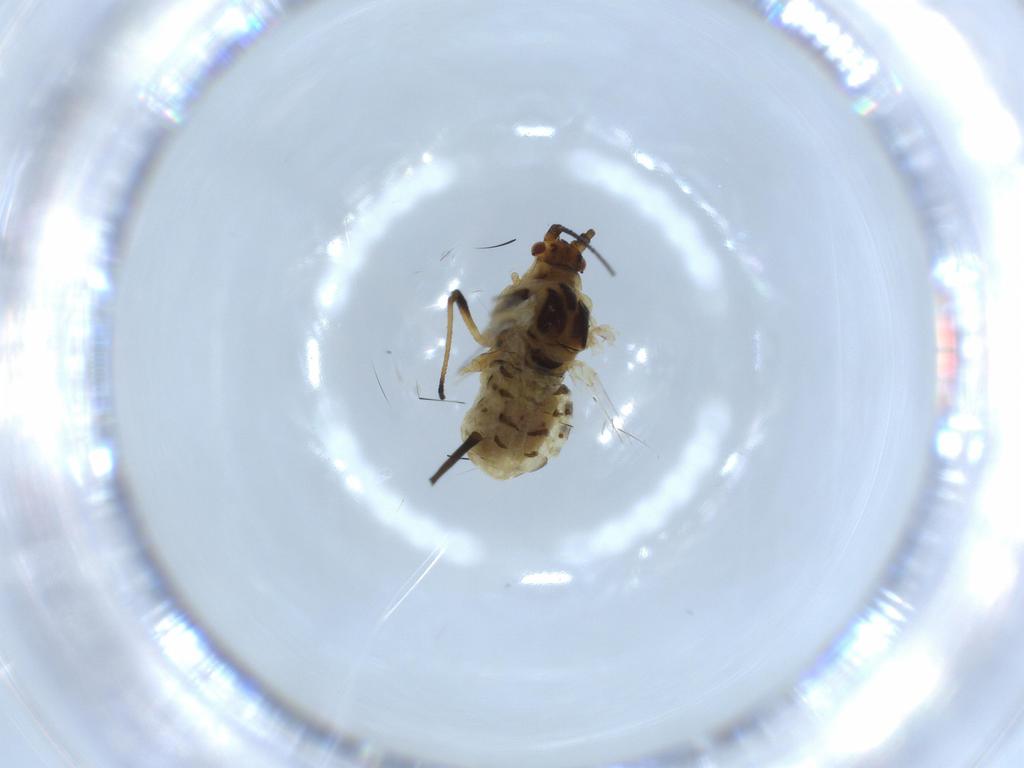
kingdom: Animalia
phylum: Arthropoda
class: Insecta
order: Hemiptera
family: Aphididae
